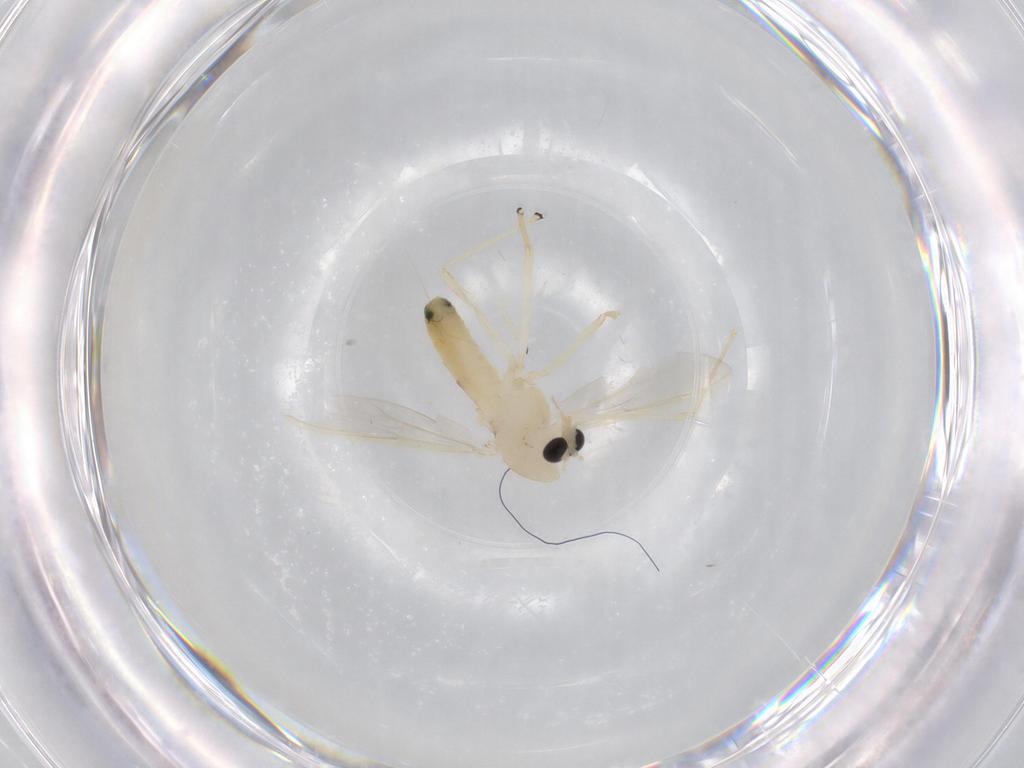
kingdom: Animalia
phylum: Arthropoda
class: Insecta
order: Diptera
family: Chironomidae
